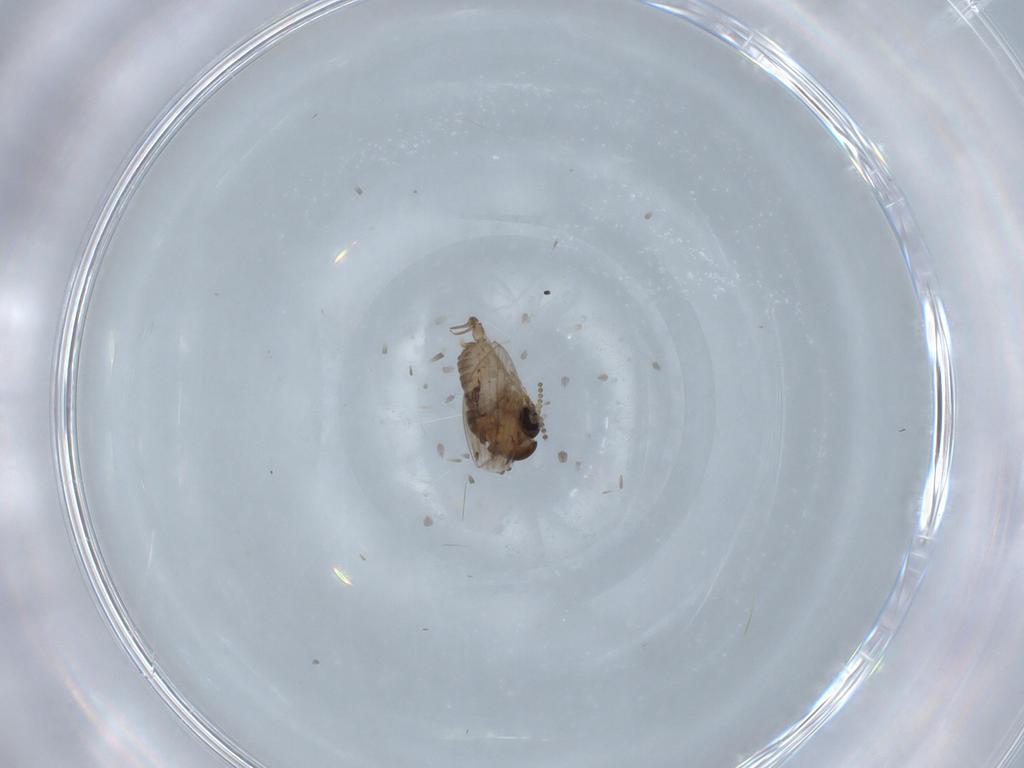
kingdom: Animalia
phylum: Arthropoda
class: Insecta
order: Diptera
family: Psychodidae
